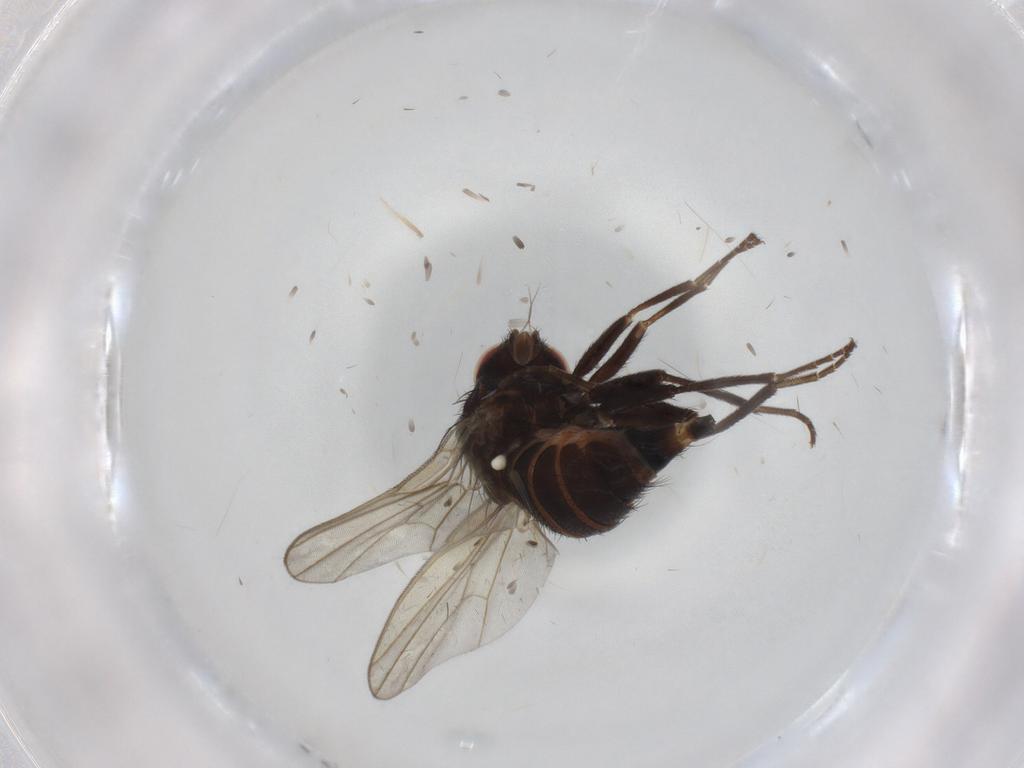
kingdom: Animalia
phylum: Arthropoda
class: Insecta
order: Diptera
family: Agromyzidae
